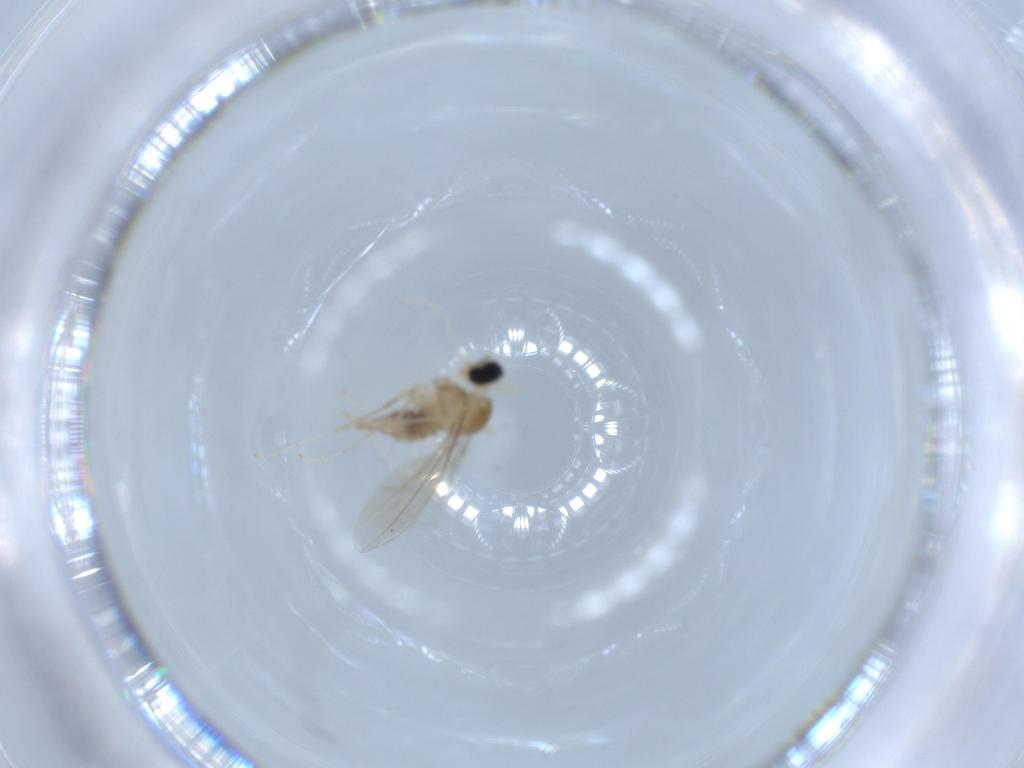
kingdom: Animalia
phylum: Arthropoda
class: Insecta
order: Diptera
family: Cecidomyiidae
